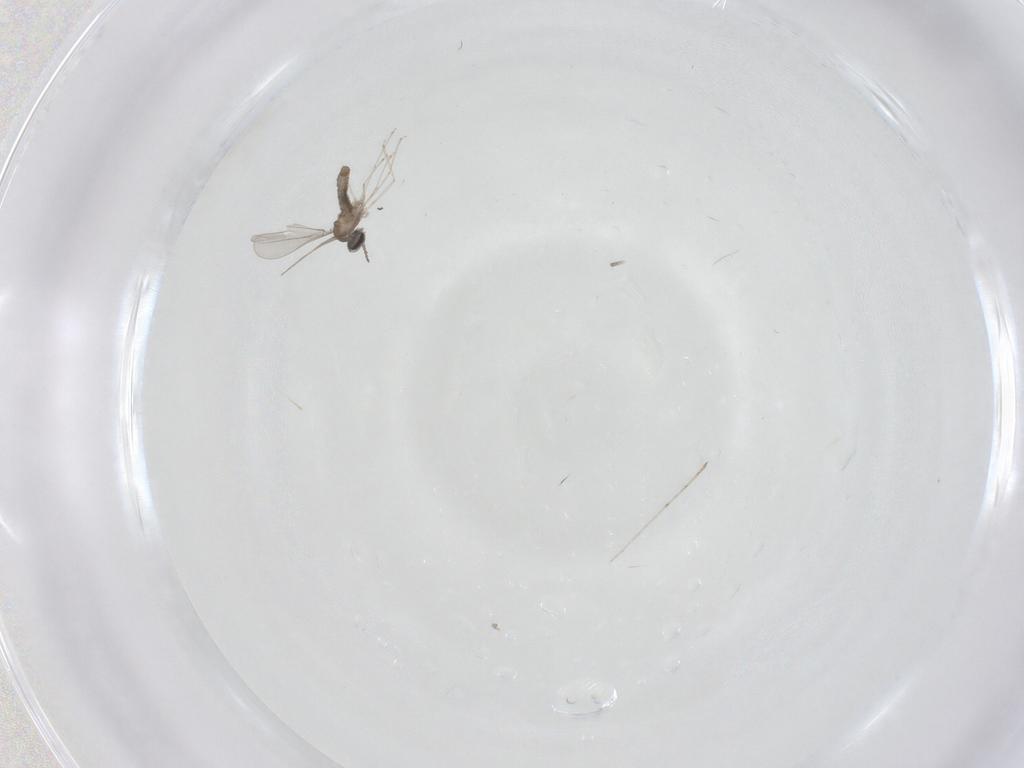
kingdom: Animalia
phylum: Arthropoda
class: Insecta
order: Diptera
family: Cecidomyiidae
